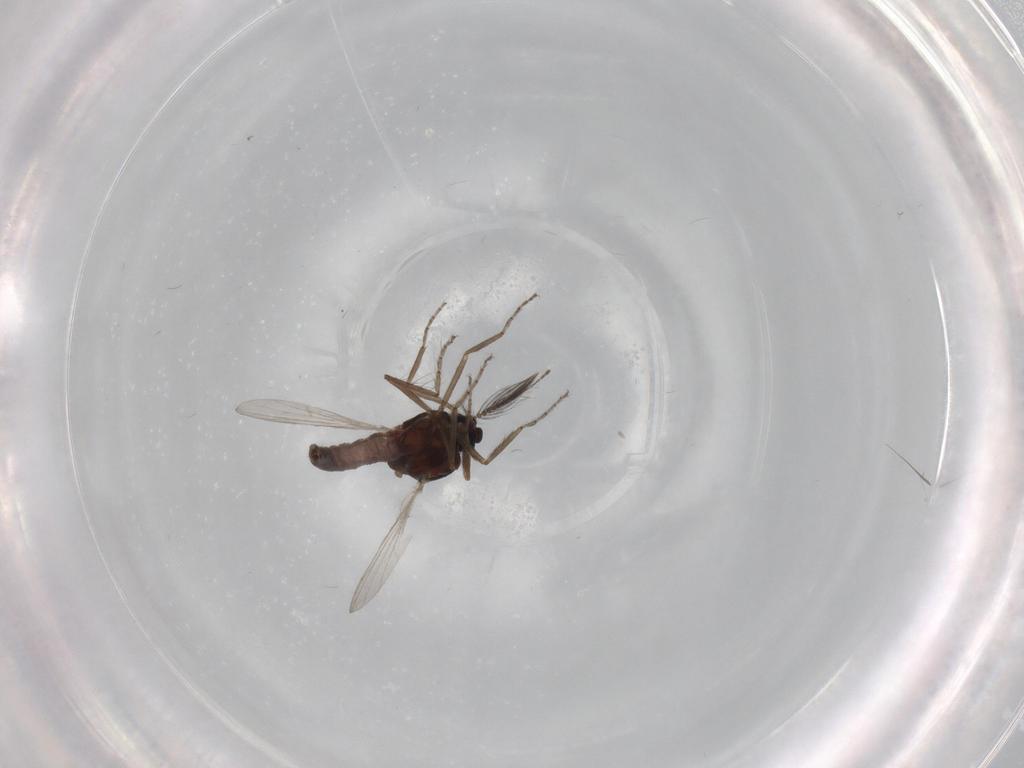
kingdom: Animalia
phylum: Arthropoda
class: Insecta
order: Diptera
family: Ceratopogonidae
